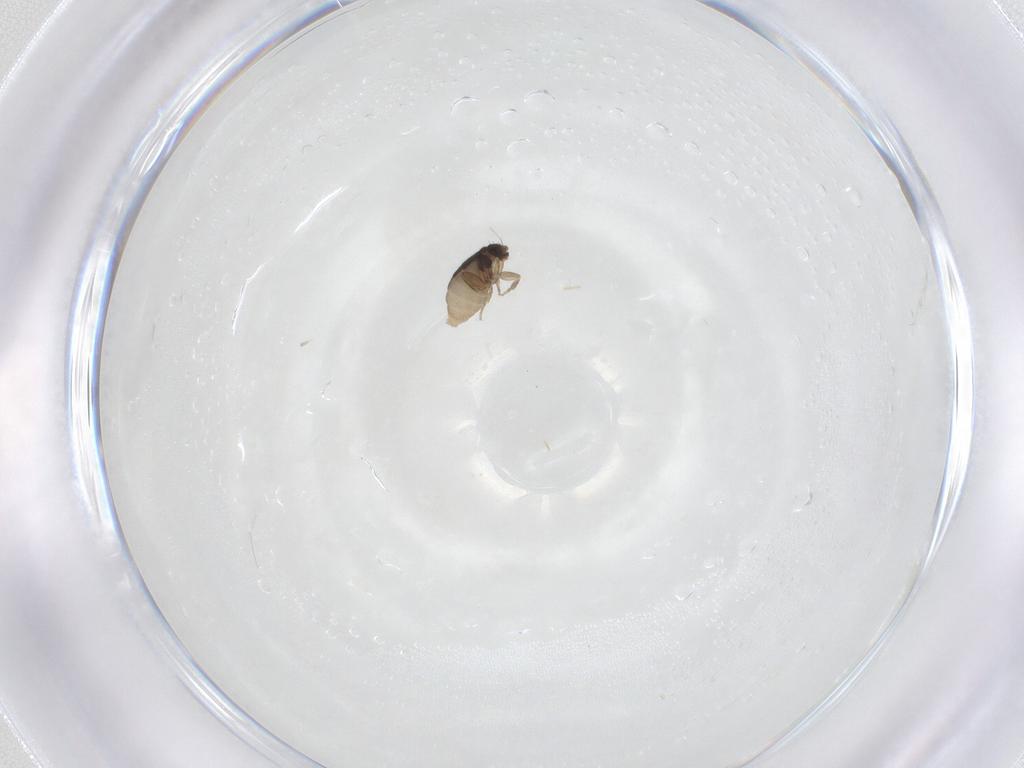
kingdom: Animalia
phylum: Arthropoda
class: Insecta
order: Diptera
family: Phoridae
